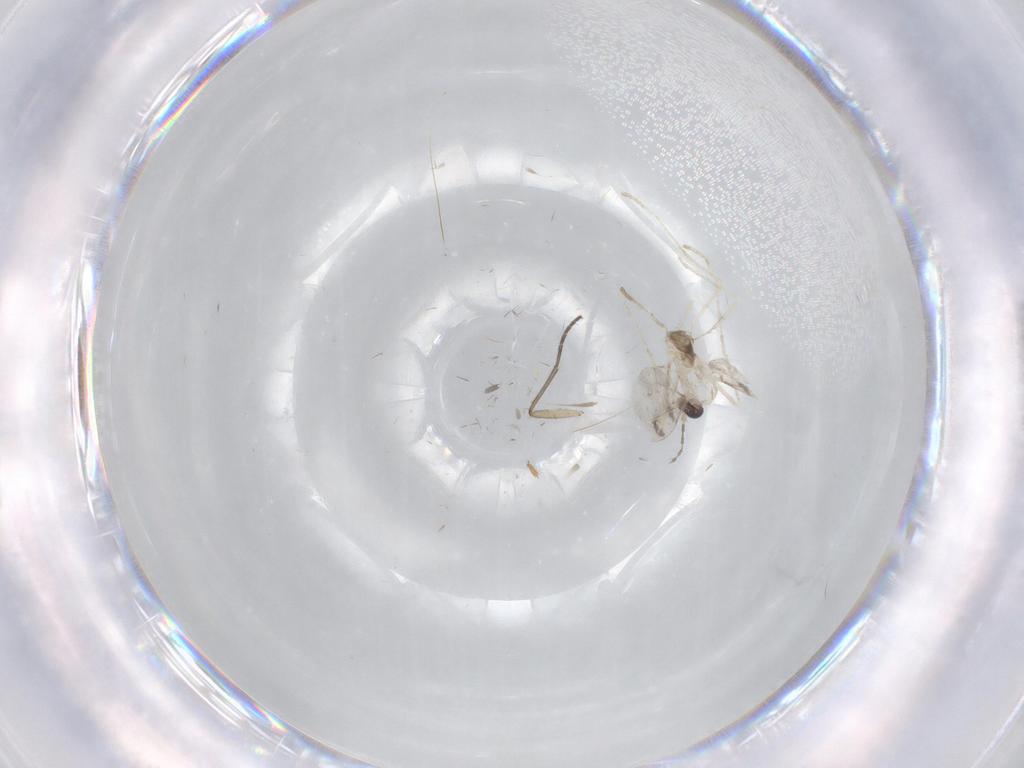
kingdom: Animalia
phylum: Arthropoda
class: Insecta
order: Diptera
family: Cecidomyiidae
